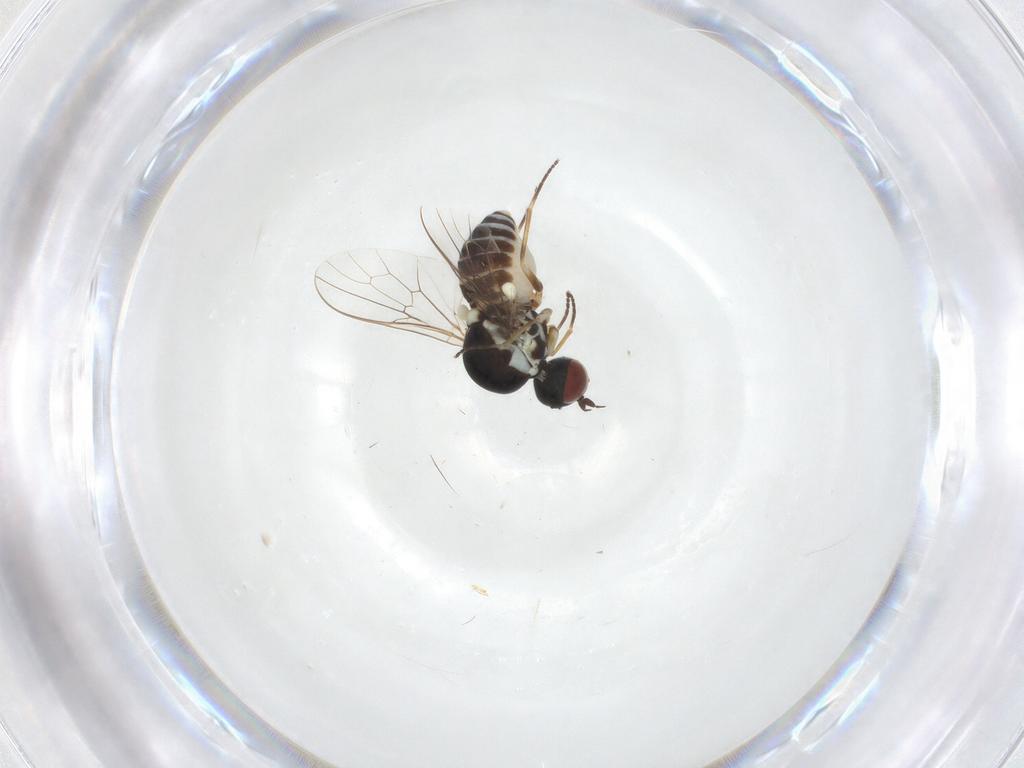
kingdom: Animalia
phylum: Arthropoda
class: Insecta
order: Diptera
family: Bombyliidae
